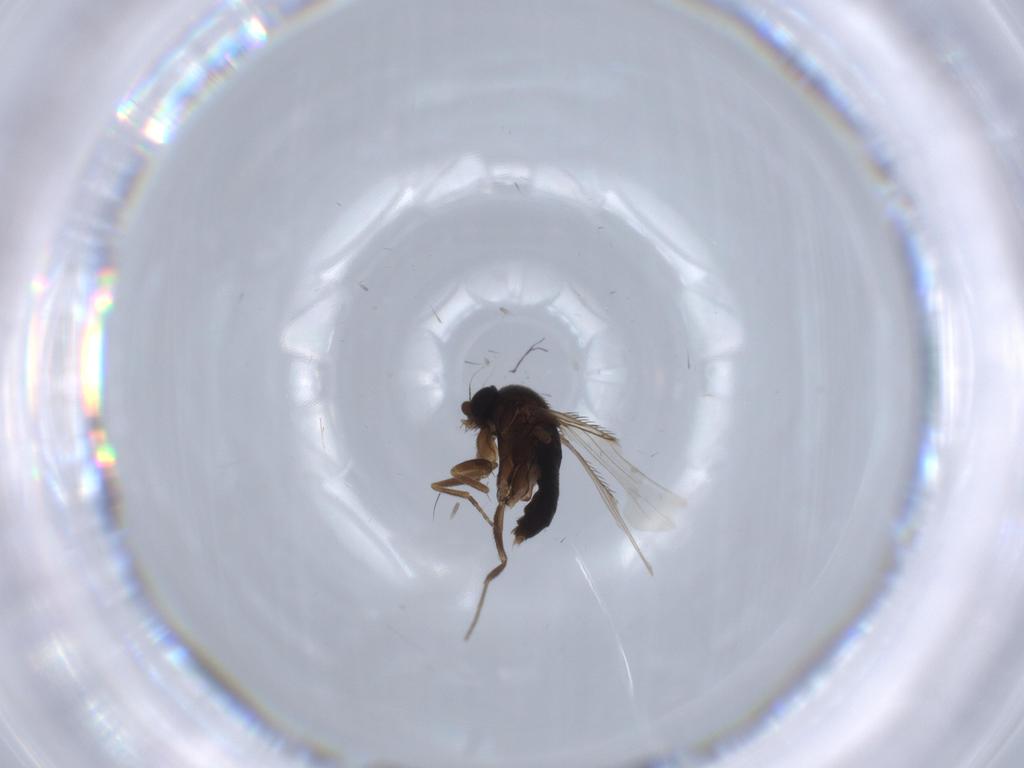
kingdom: Animalia
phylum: Arthropoda
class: Insecta
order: Diptera
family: Phoridae
